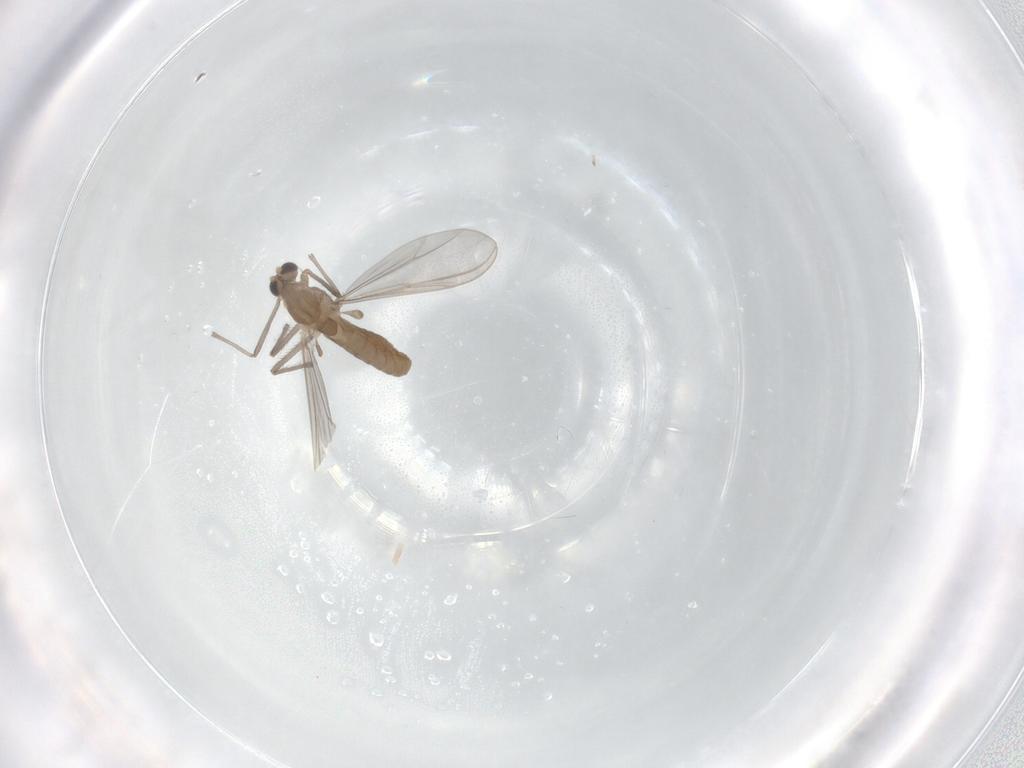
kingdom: Animalia
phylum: Arthropoda
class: Insecta
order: Diptera
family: Chironomidae
